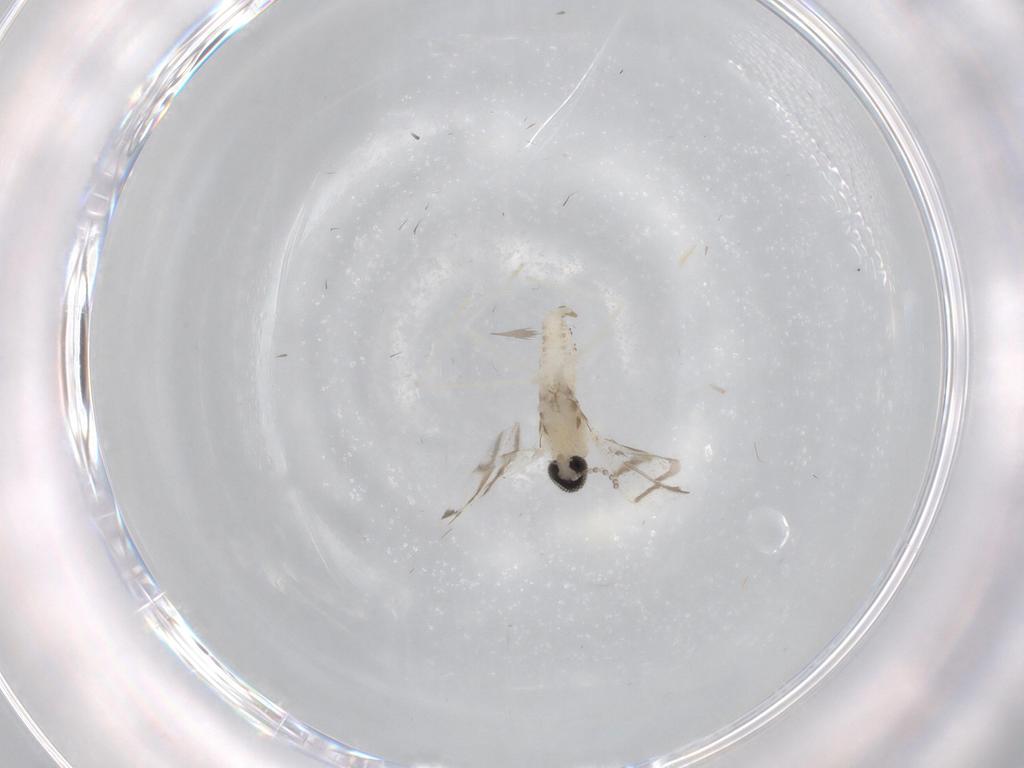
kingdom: Animalia
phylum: Arthropoda
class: Insecta
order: Diptera
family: Cecidomyiidae
